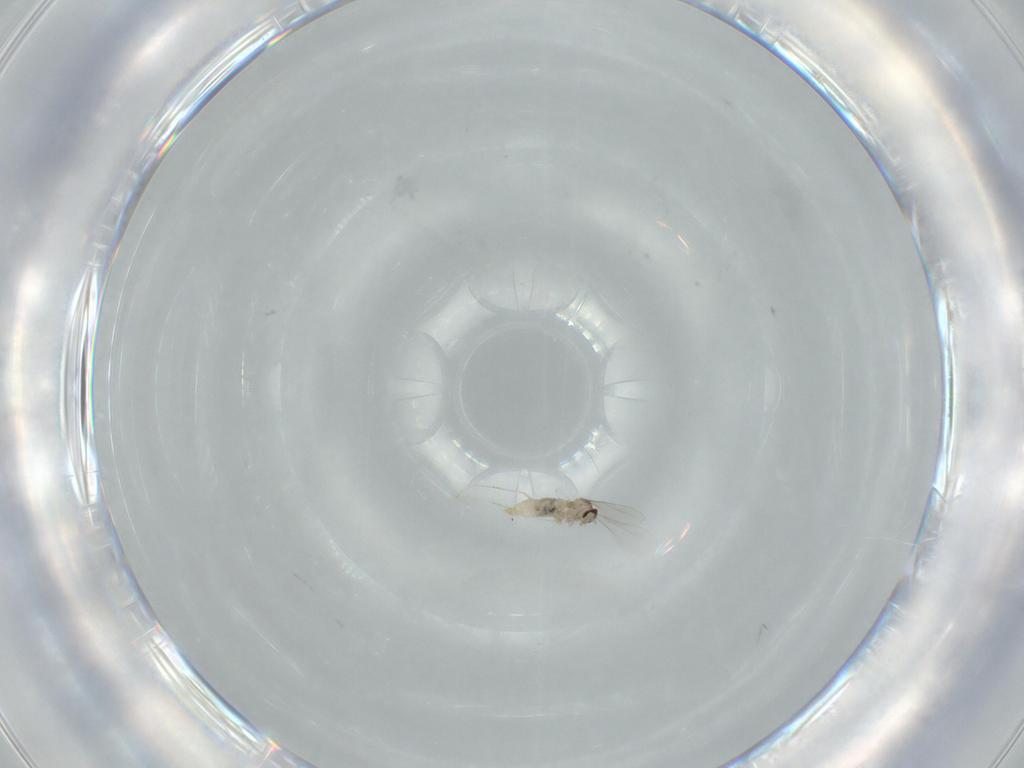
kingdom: Animalia
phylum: Arthropoda
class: Insecta
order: Diptera
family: Cecidomyiidae
